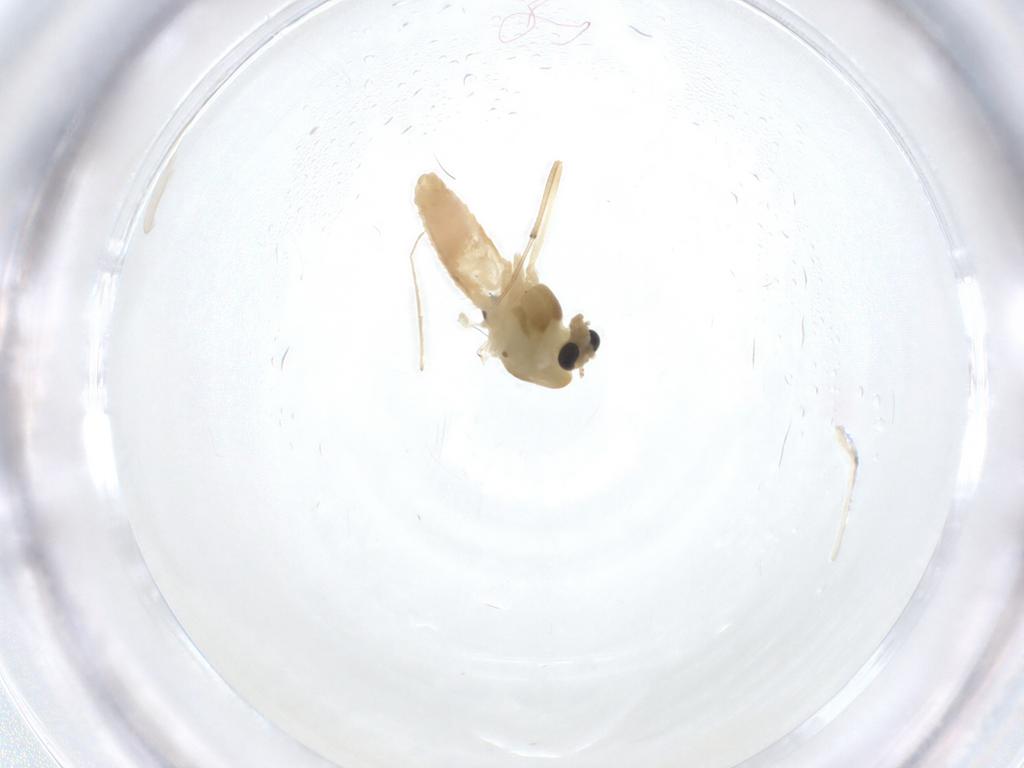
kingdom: Animalia
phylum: Arthropoda
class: Insecta
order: Diptera
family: Chironomidae
